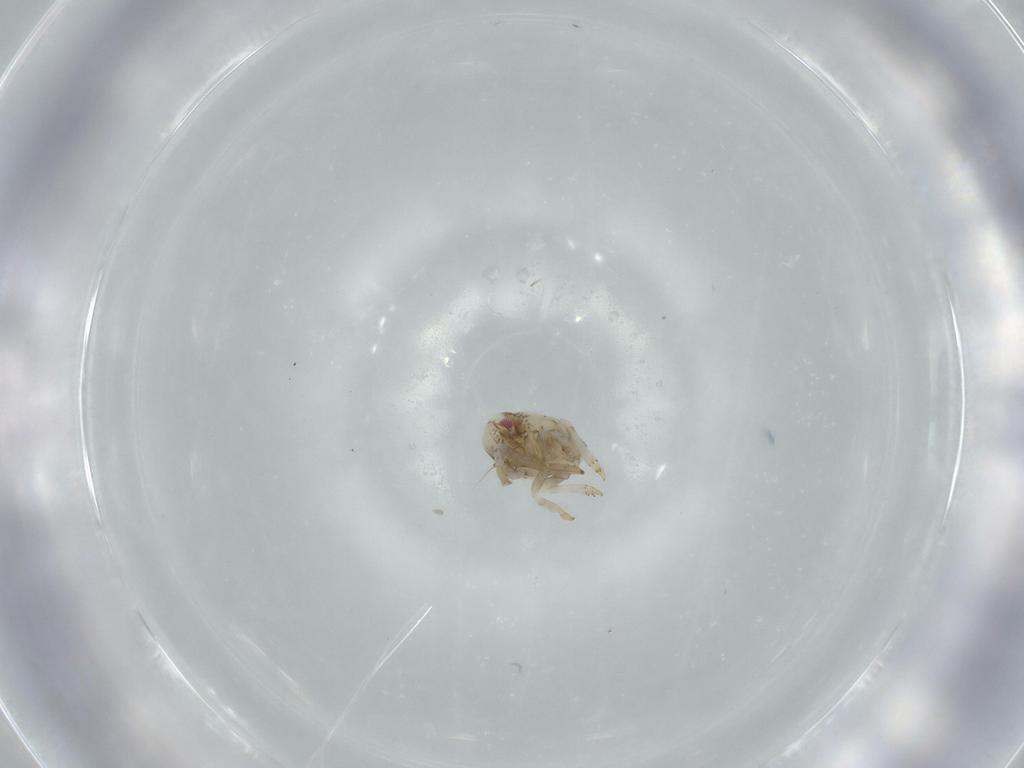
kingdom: Animalia
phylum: Arthropoda
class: Insecta
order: Hemiptera
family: Acanaloniidae
